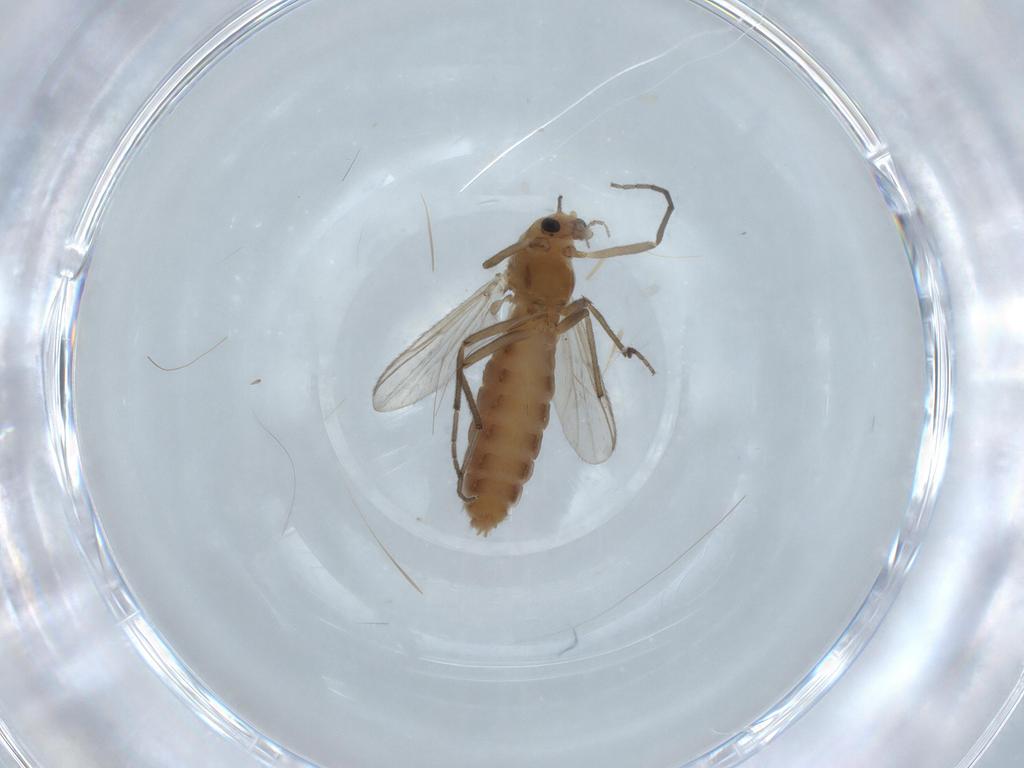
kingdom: Animalia
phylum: Arthropoda
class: Insecta
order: Diptera
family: Chironomidae
